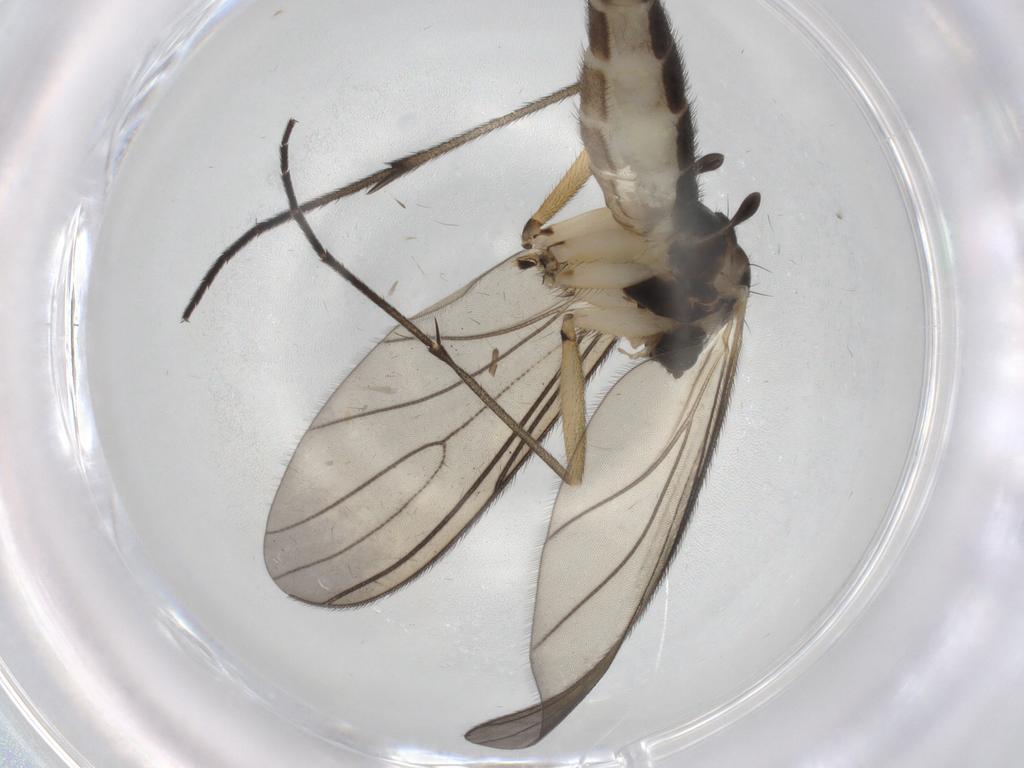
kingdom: Animalia
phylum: Arthropoda
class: Insecta
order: Diptera
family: Sciaridae
